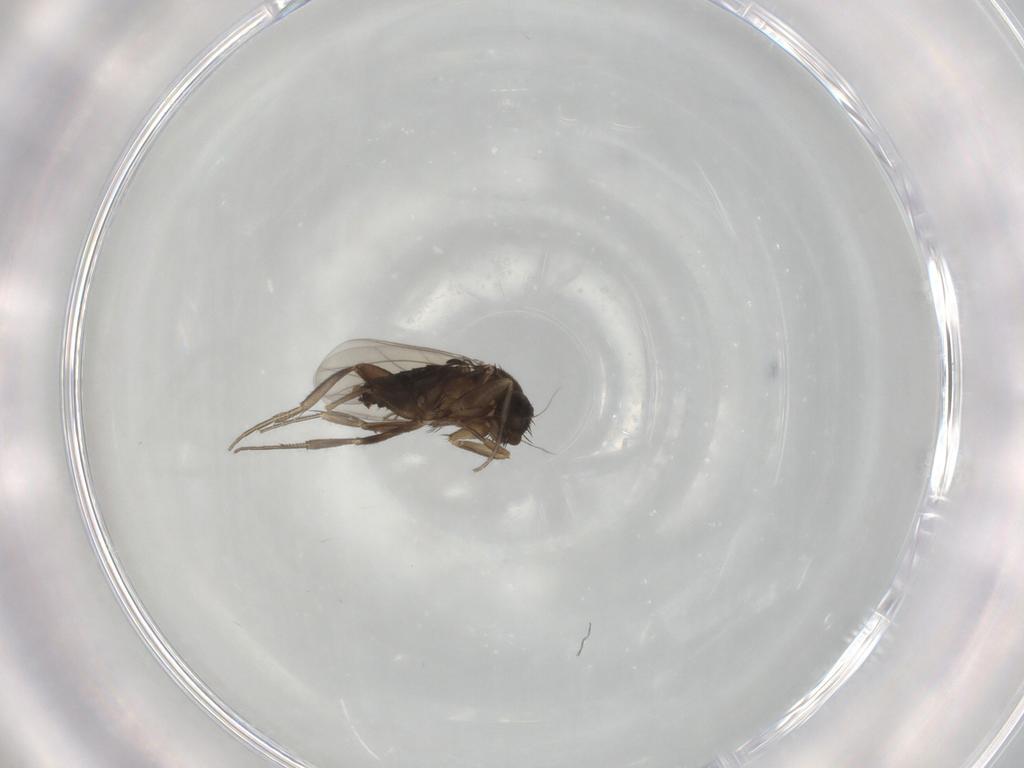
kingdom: Animalia
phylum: Arthropoda
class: Insecta
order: Diptera
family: Phoridae
